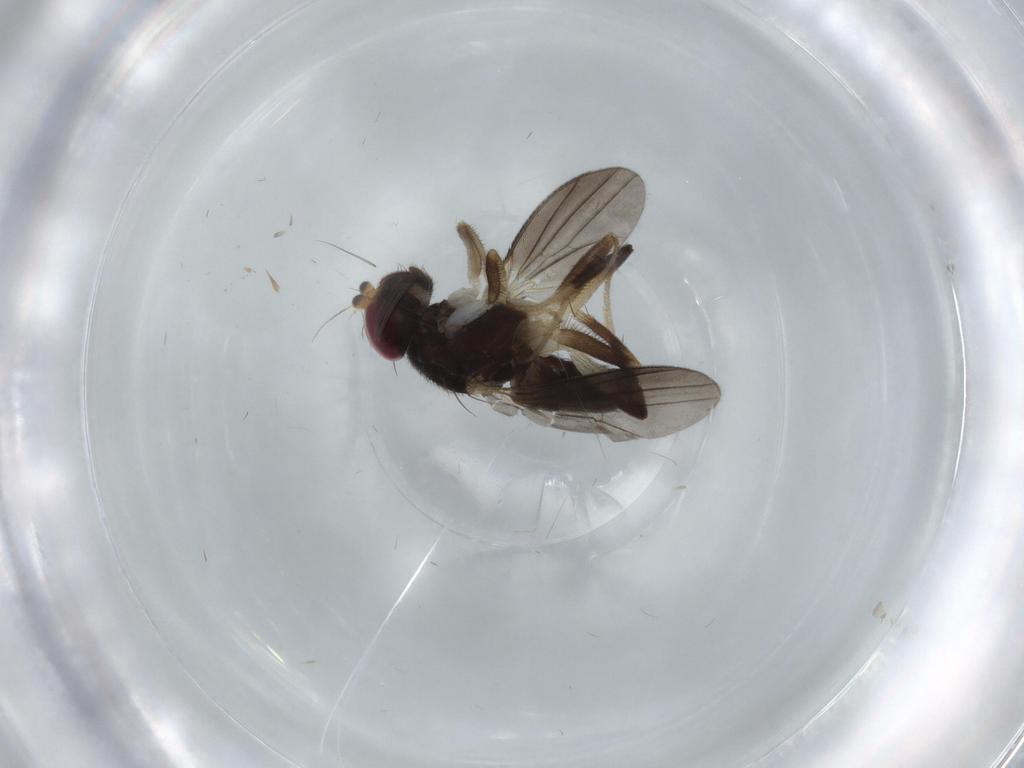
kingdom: Animalia
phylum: Arthropoda
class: Insecta
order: Diptera
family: Clusiidae
